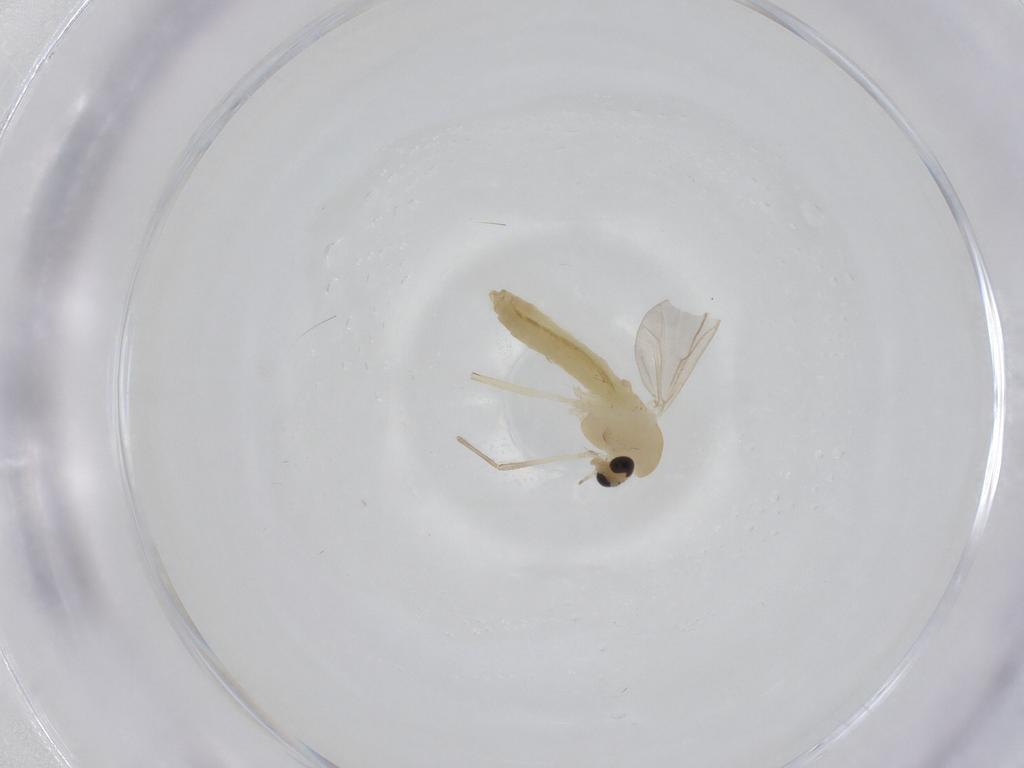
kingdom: Animalia
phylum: Arthropoda
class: Insecta
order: Diptera
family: Chironomidae
